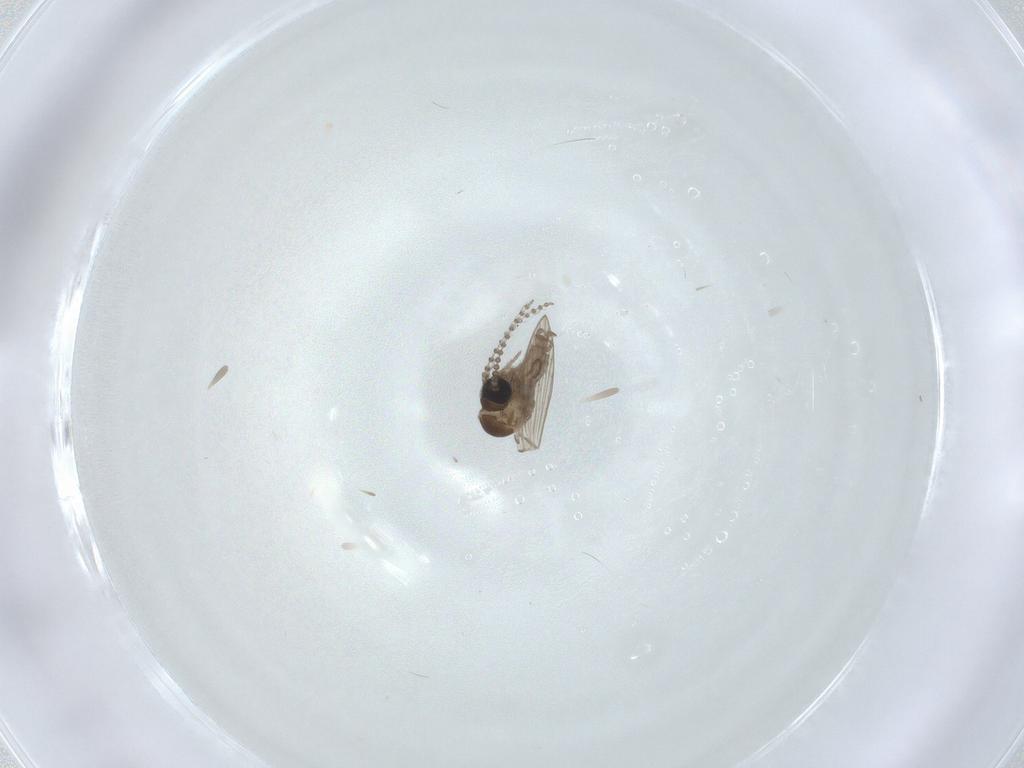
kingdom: Animalia
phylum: Arthropoda
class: Insecta
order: Diptera
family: Psychodidae
